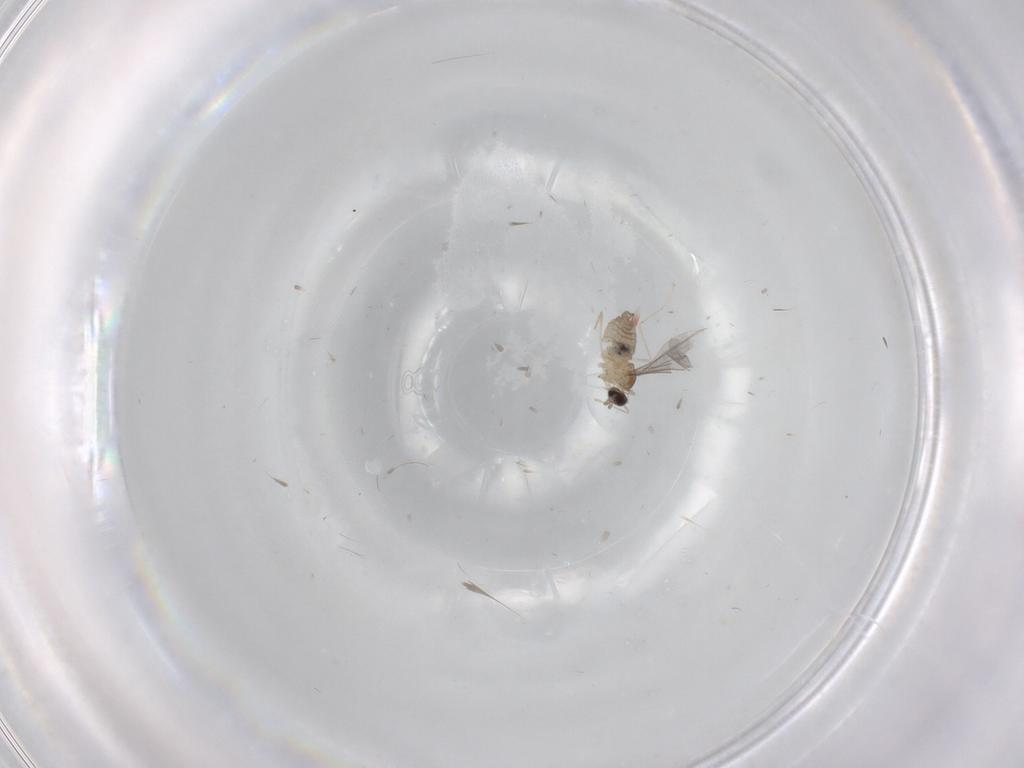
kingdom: Animalia
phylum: Arthropoda
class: Insecta
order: Diptera
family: Cecidomyiidae
